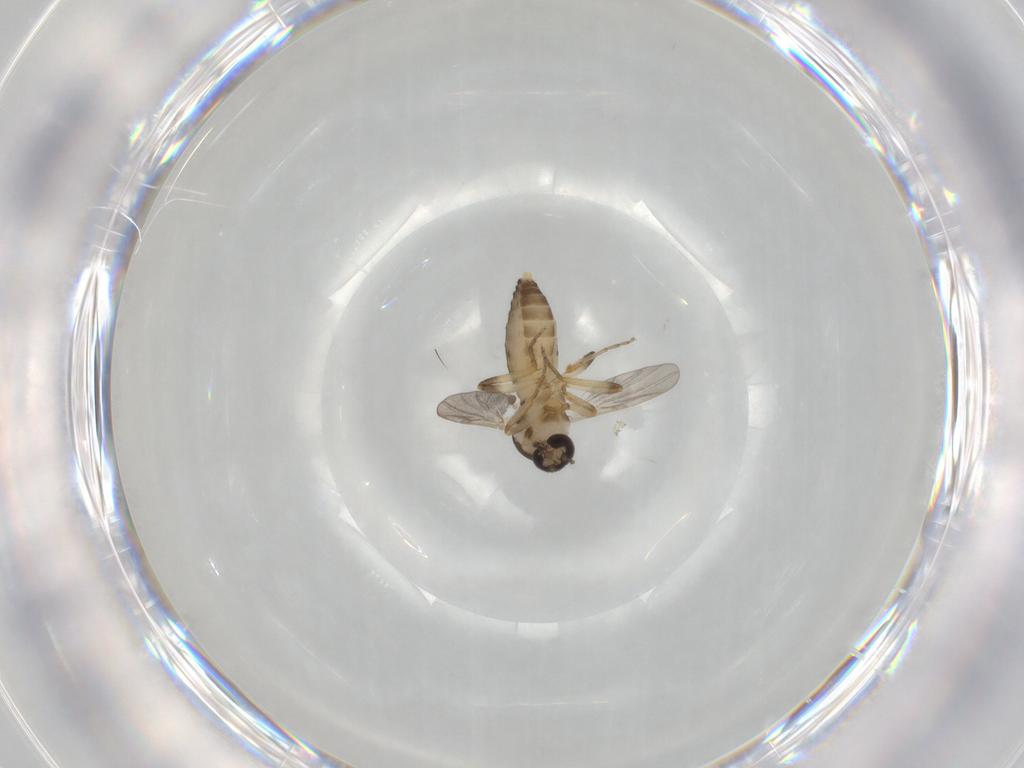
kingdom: Animalia
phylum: Arthropoda
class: Insecta
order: Diptera
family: Ceratopogonidae
